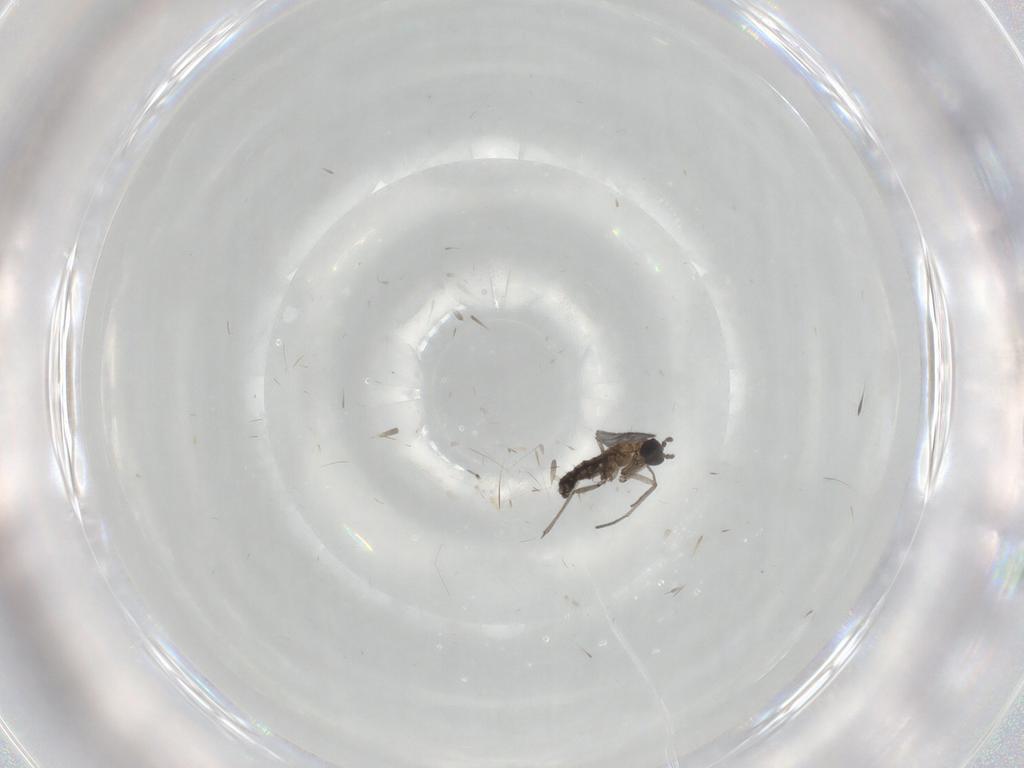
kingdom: Animalia
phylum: Arthropoda
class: Insecta
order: Diptera
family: Sciaridae
